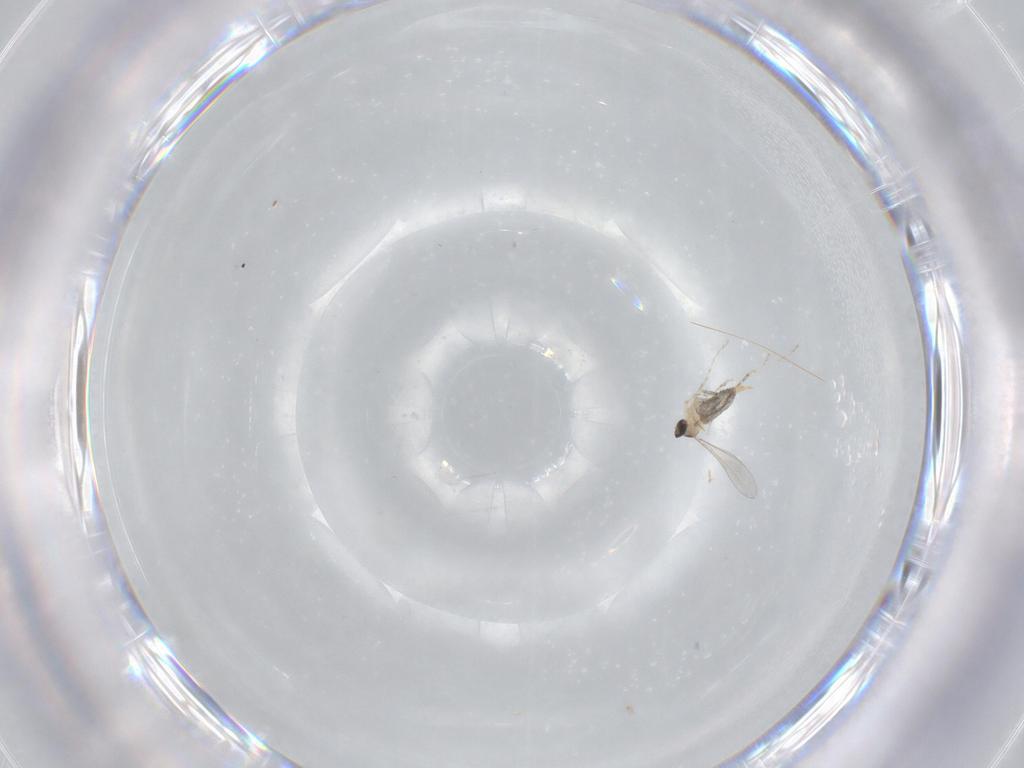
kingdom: Animalia
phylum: Arthropoda
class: Insecta
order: Diptera
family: Cecidomyiidae
